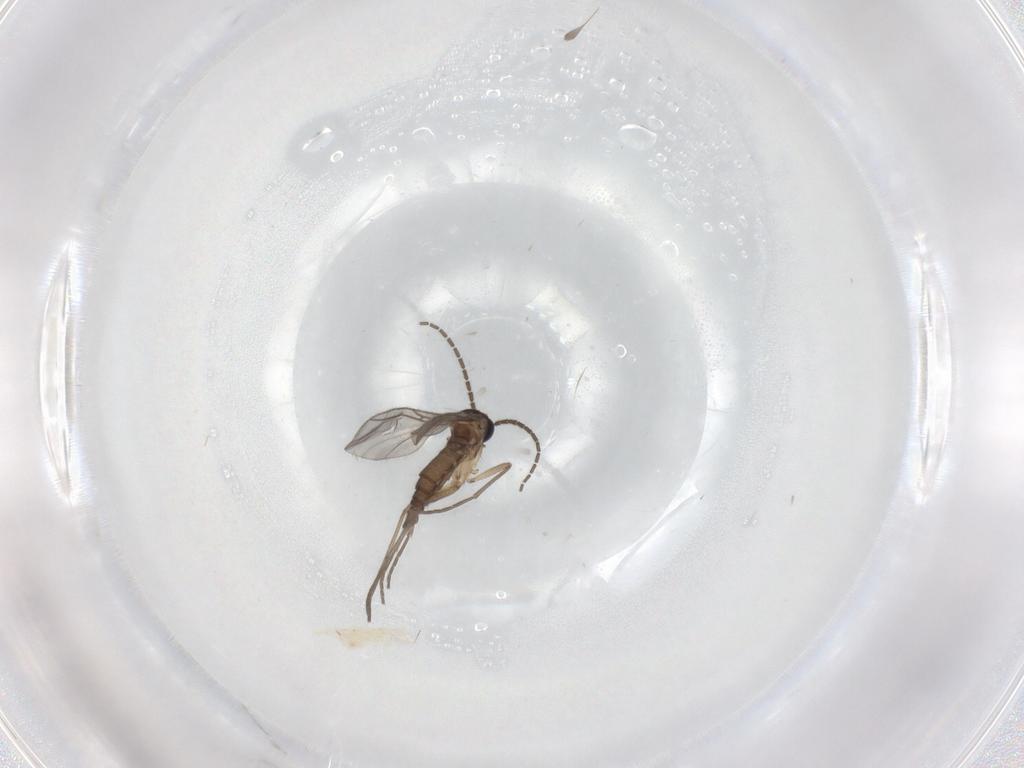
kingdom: Animalia
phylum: Arthropoda
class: Insecta
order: Diptera
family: Sciaridae
